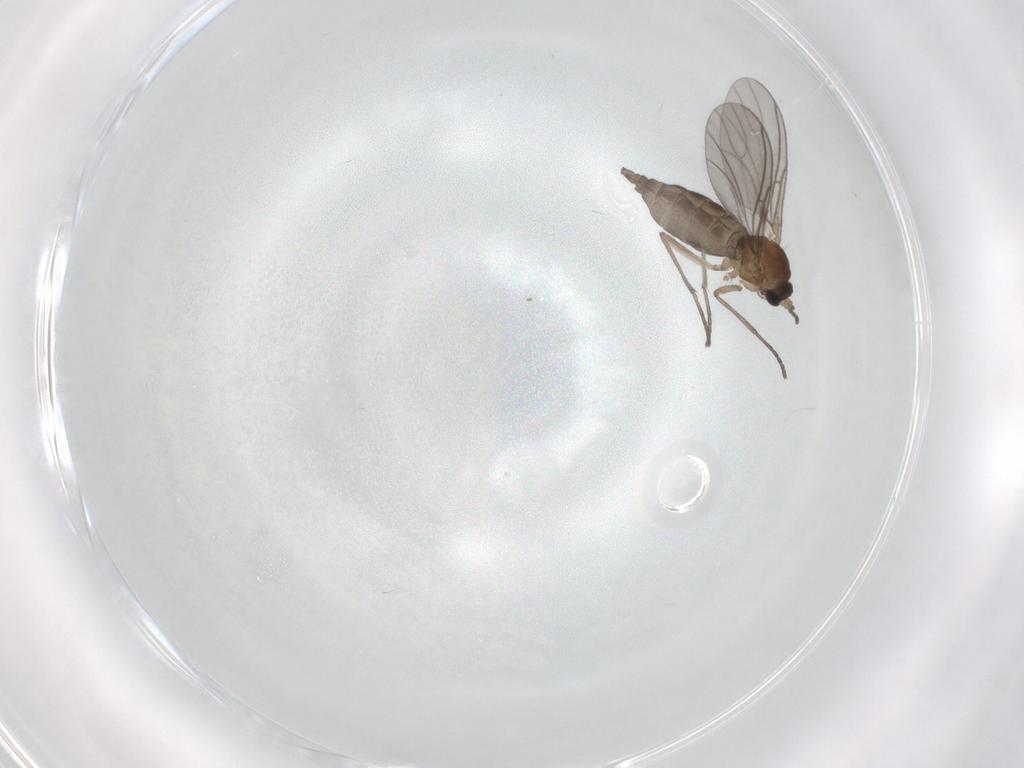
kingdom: Animalia
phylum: Arthropoda
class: Insecta
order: Diptera
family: Sciaridae
